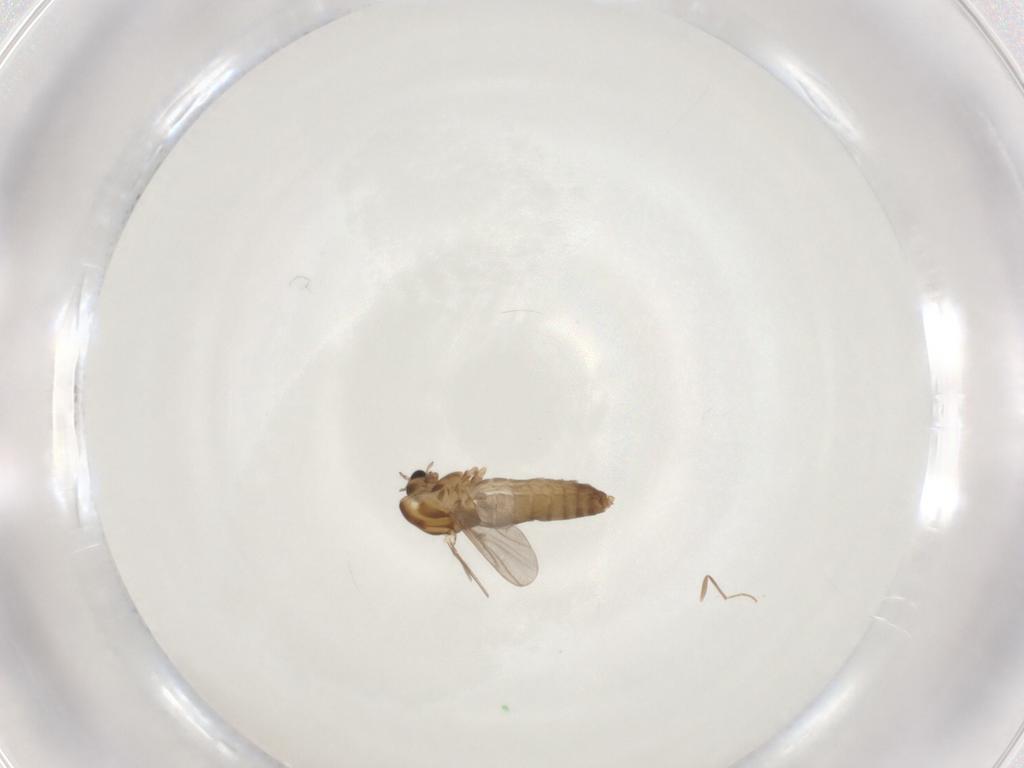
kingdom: Animalia
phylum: Arthropoda
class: Insecta
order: Diptera
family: Chironomidae
